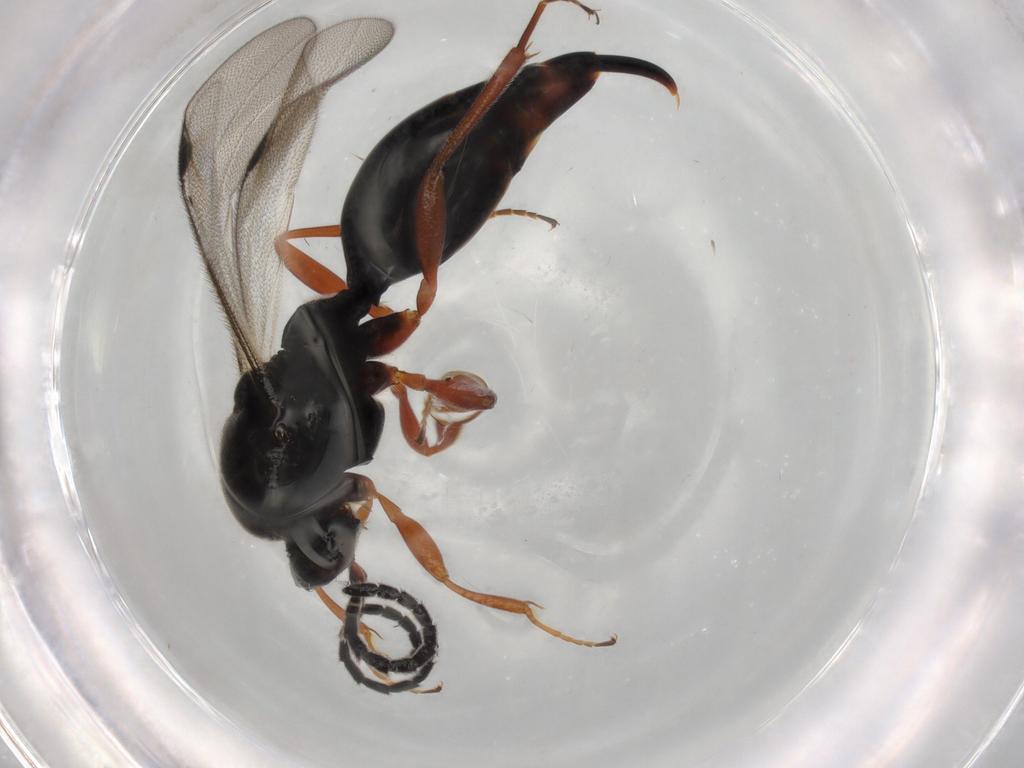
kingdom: Animalia
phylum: Arthropoda
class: Insecta
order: Hymenoptera
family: Proctotrupidae
